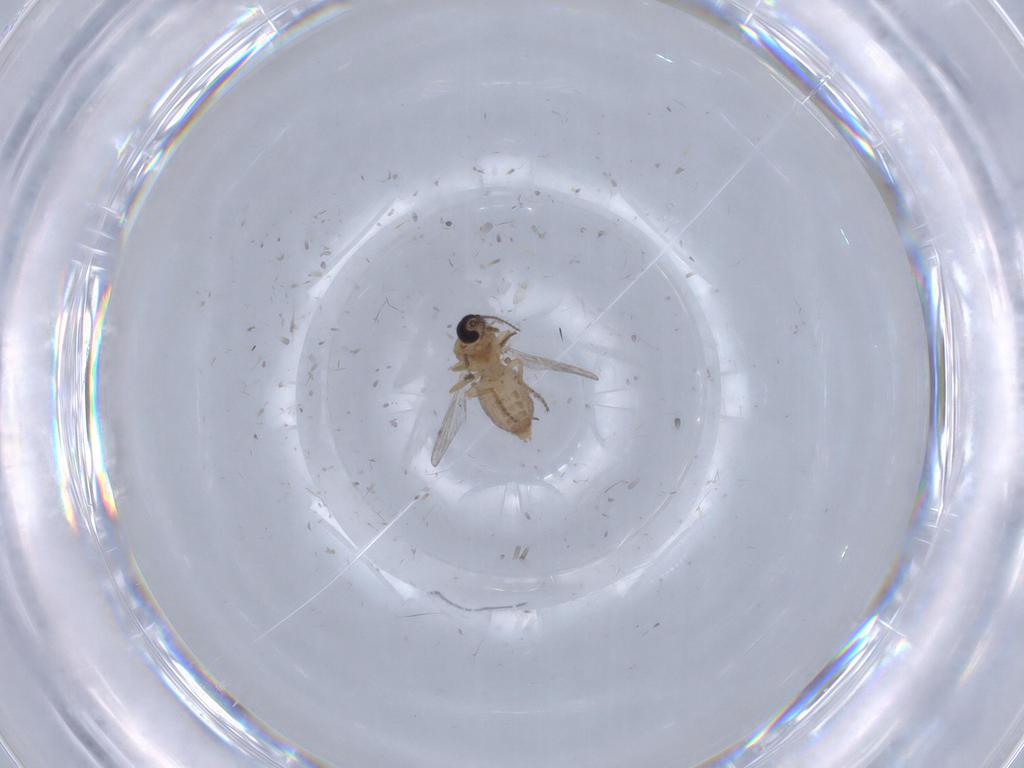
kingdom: Animalia
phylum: Arthropoda
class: Insecta
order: Diptera
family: Ceratopogonidae
